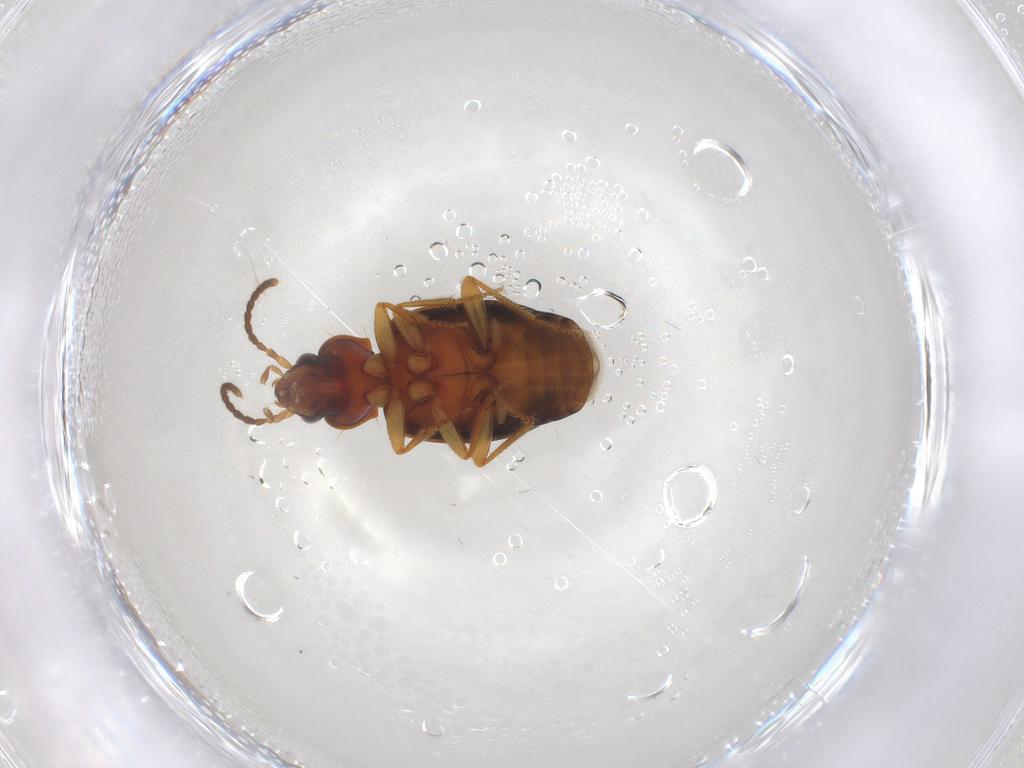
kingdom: Animalia
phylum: Arthropoda
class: Insecta
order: Coleoptera
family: Carabidae
